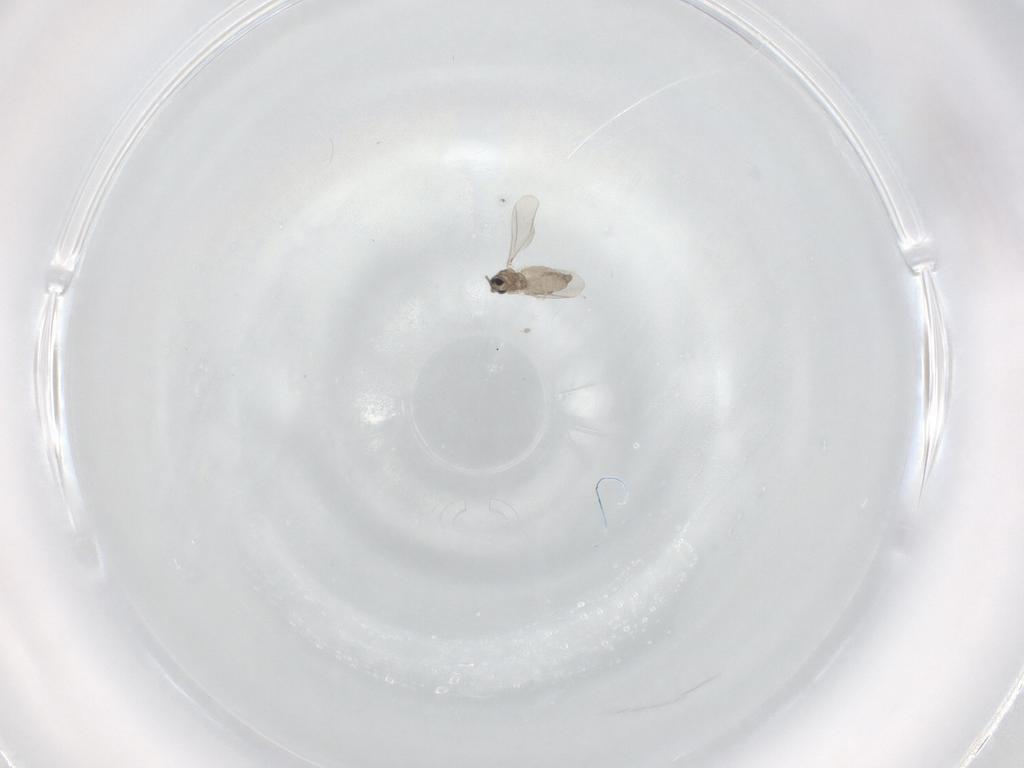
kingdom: Animalia
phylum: Arthropoda
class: Insecta
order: Diptera
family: Cecidomyiidae
